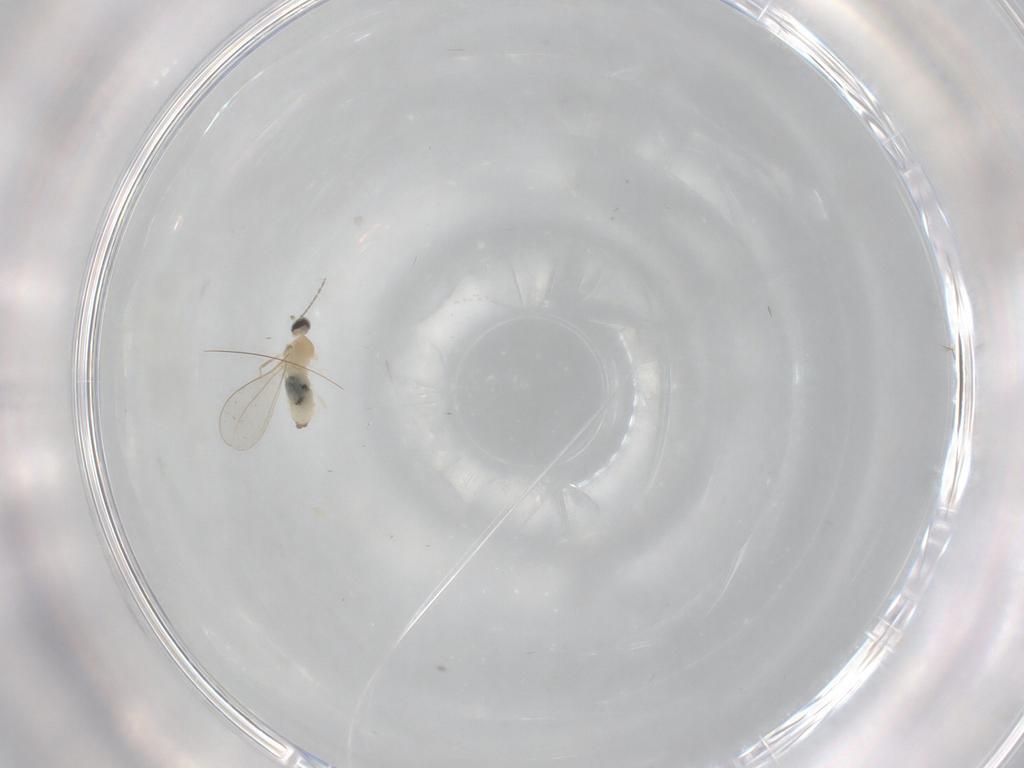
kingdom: Animalia
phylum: Arthropoda
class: Insecta
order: Diptera
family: Cecidomyiidae
